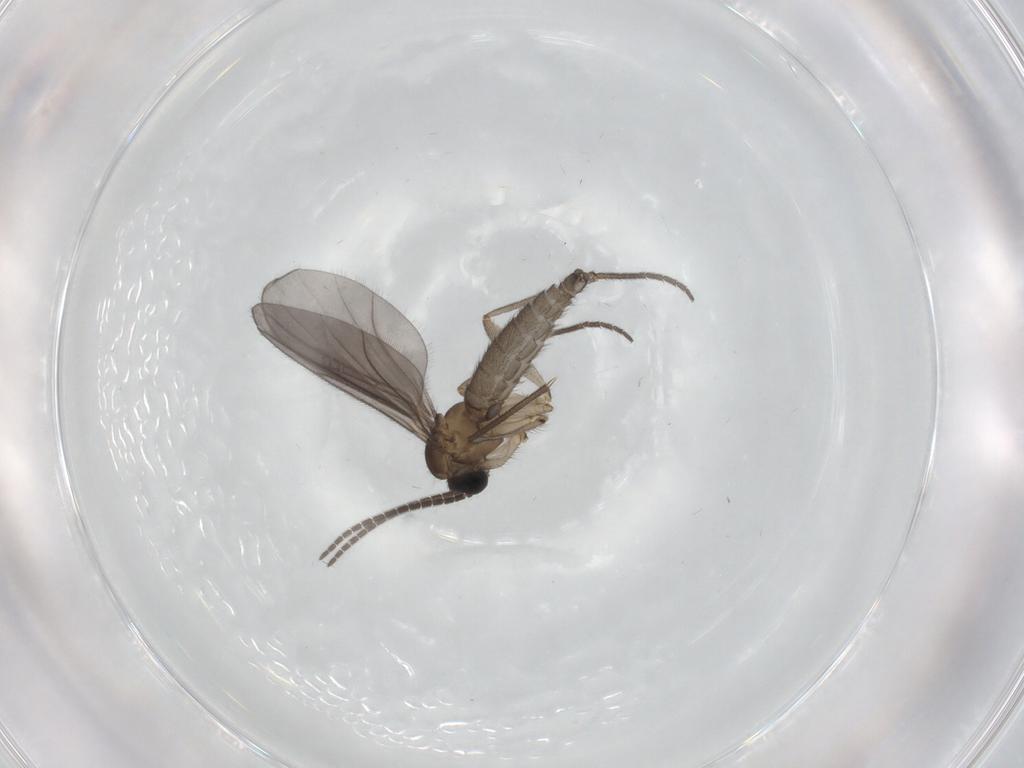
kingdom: Animalia
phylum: Arthropoda
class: Insecta
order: Diptera
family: Sciaridae
